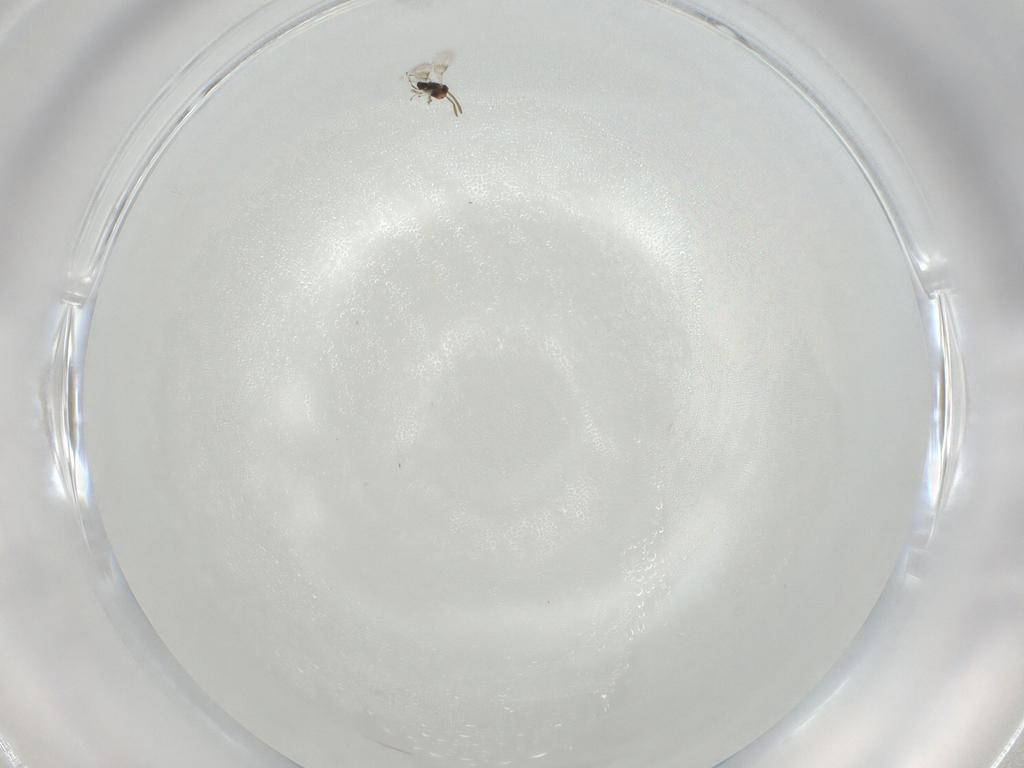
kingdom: Animalia
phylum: Arthropoda
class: Insecta
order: Hymenoptera
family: Azotidae
